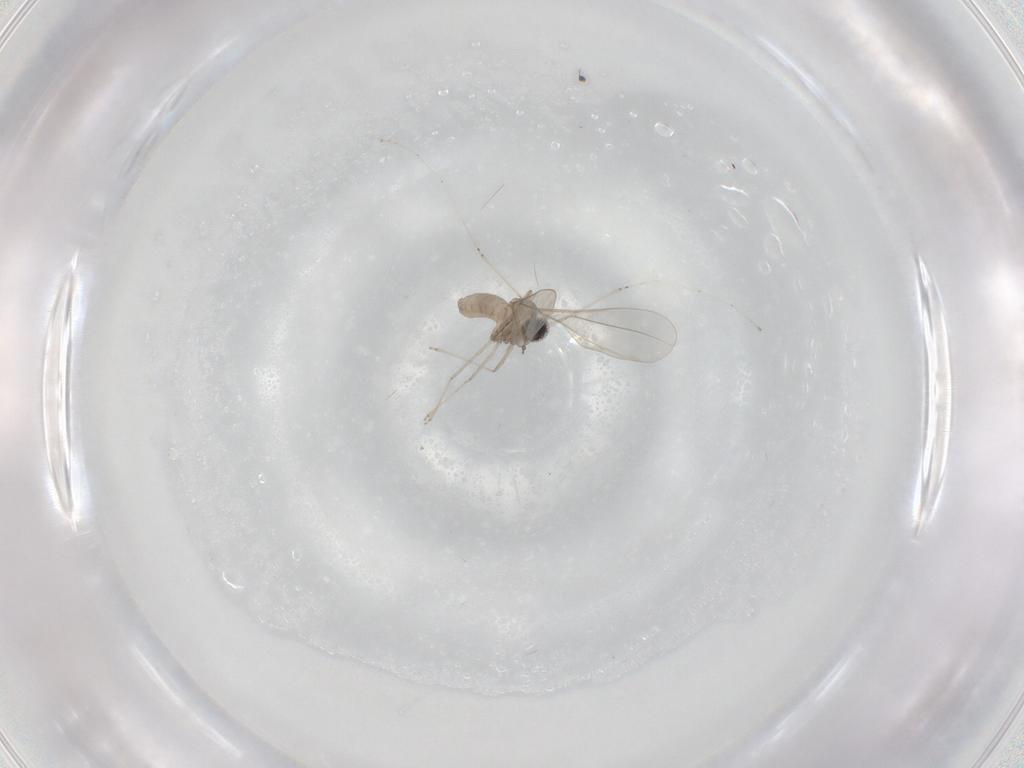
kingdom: Animalia
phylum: Arthropoda
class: Insecta
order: Diptera
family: Cecidomyiidae
